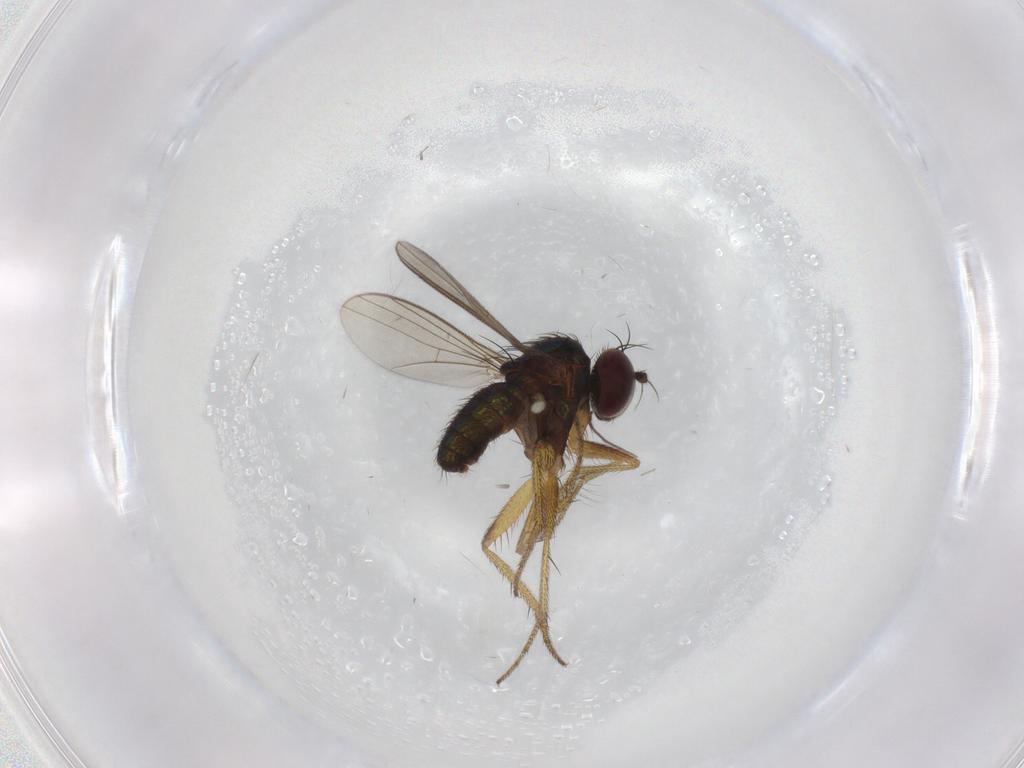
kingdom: Animalia
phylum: Arthropoda
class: Insecta
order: Diptera
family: Chironomidae
